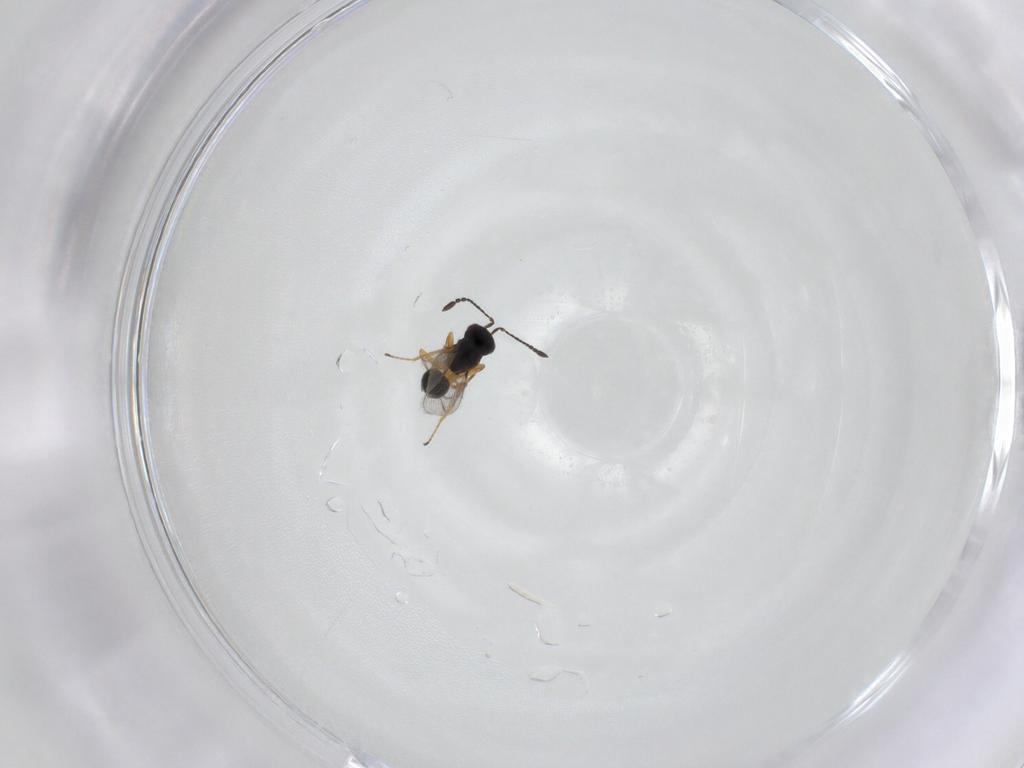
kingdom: Animalia
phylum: Arthropoda
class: Insecta
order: Hymenoptera
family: Mymaridae
